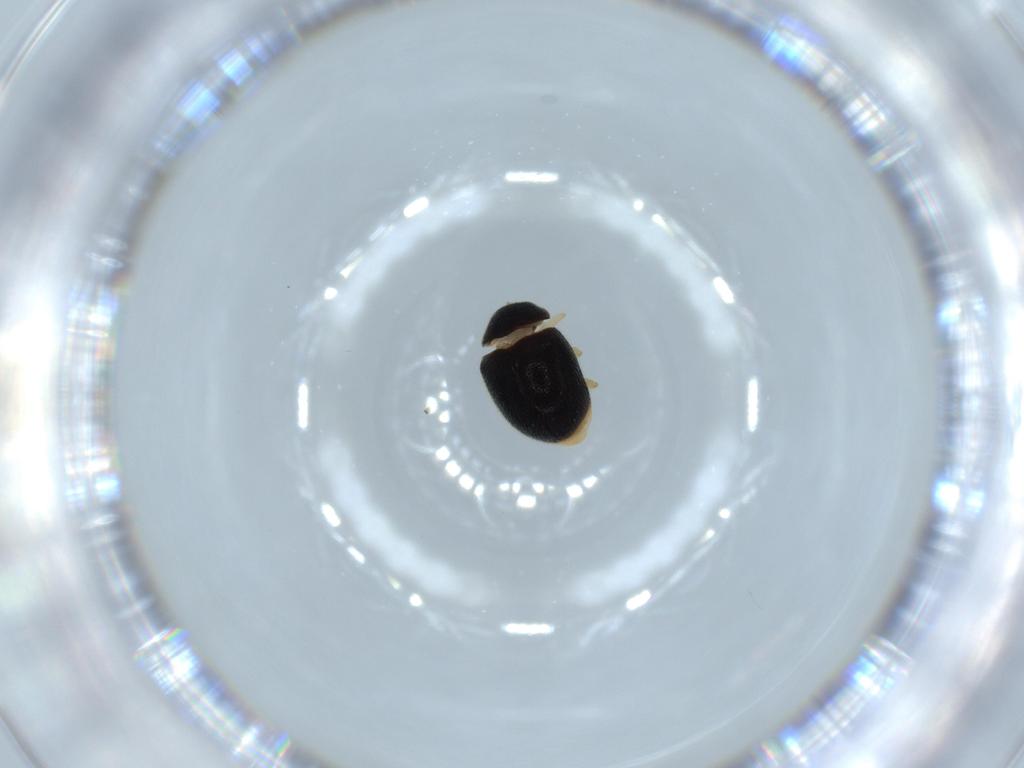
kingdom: Animalia
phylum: Arthropoda
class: Insecta
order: Coleoptera
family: Coccinellidae
